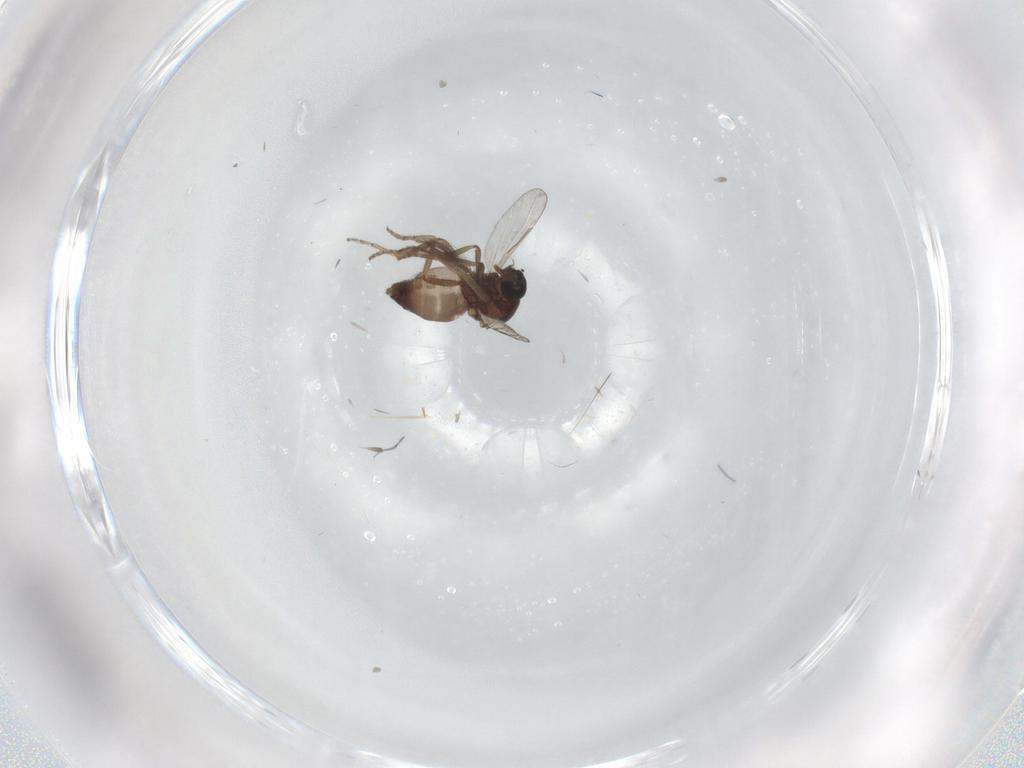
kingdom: Animalia
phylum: Arthropoda
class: Insecta
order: Diptera
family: Ceratopogonidae
